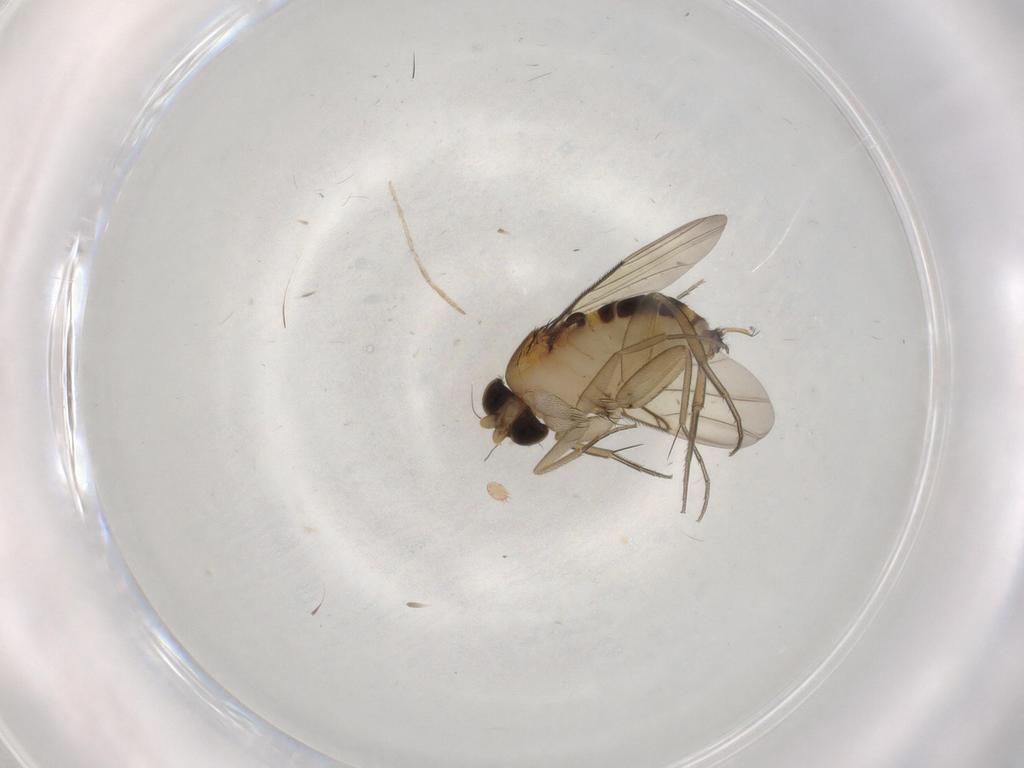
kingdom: Animalia
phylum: Arthropoda
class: Insecta
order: Diptera
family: Phoridae
